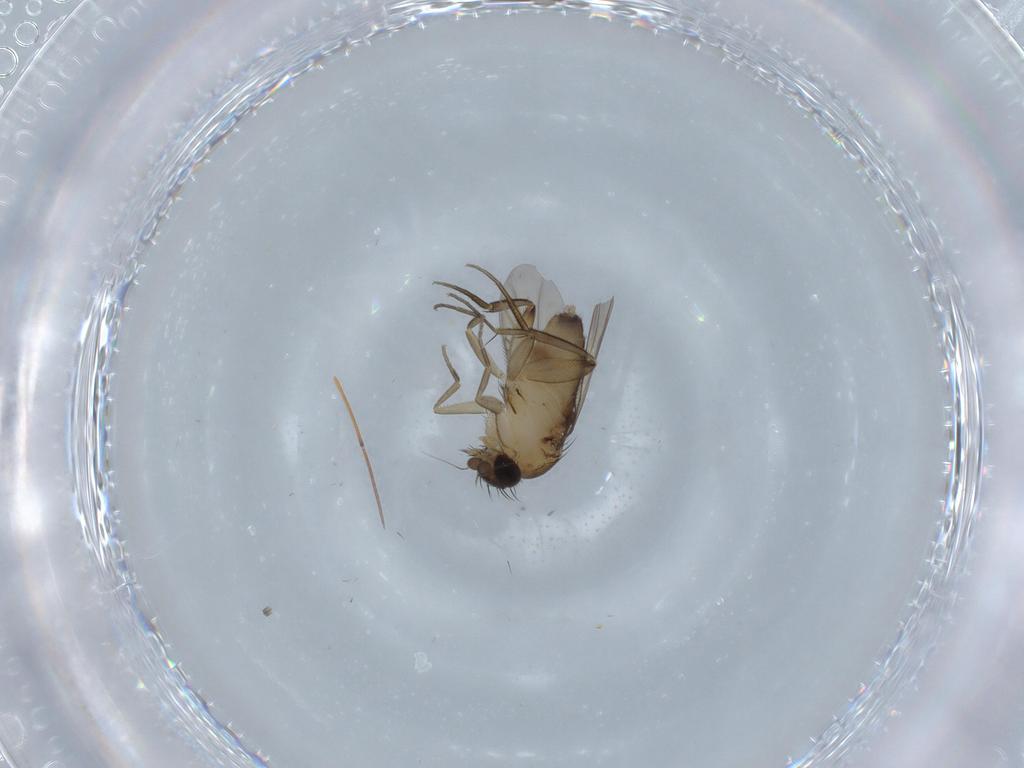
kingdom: Animalia
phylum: Arthropoda
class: Insecta
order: Diptera
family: Phoridae
